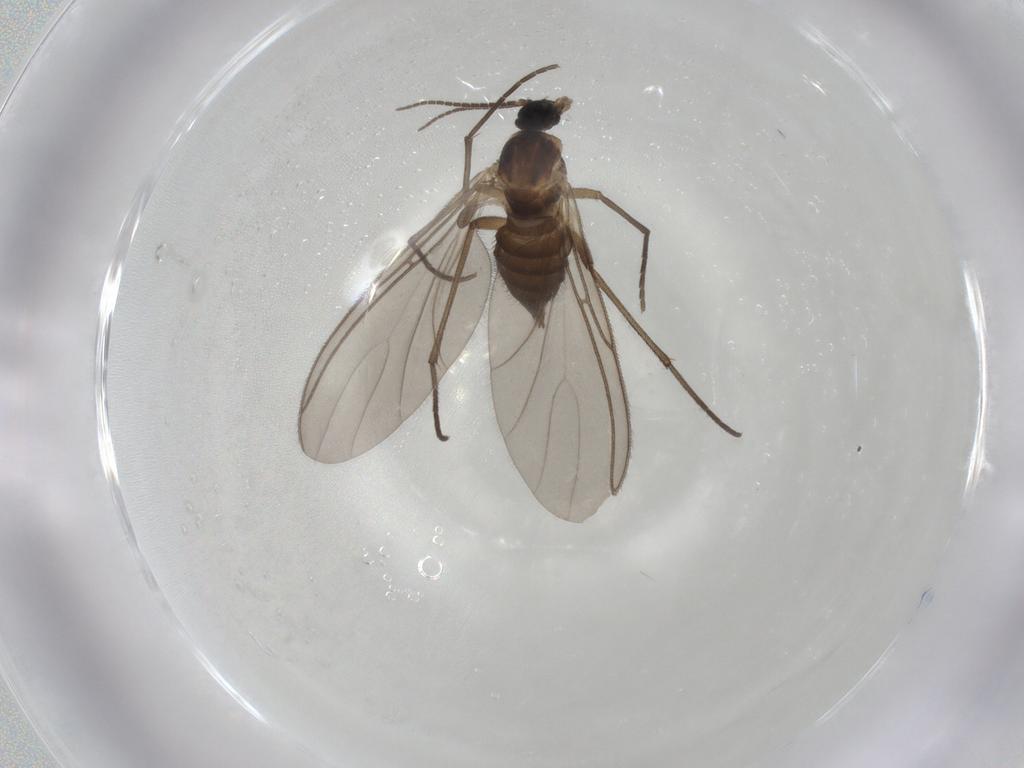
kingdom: Animalia
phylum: Arthropoda
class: Insecta
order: Diptera
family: Sciaridae
